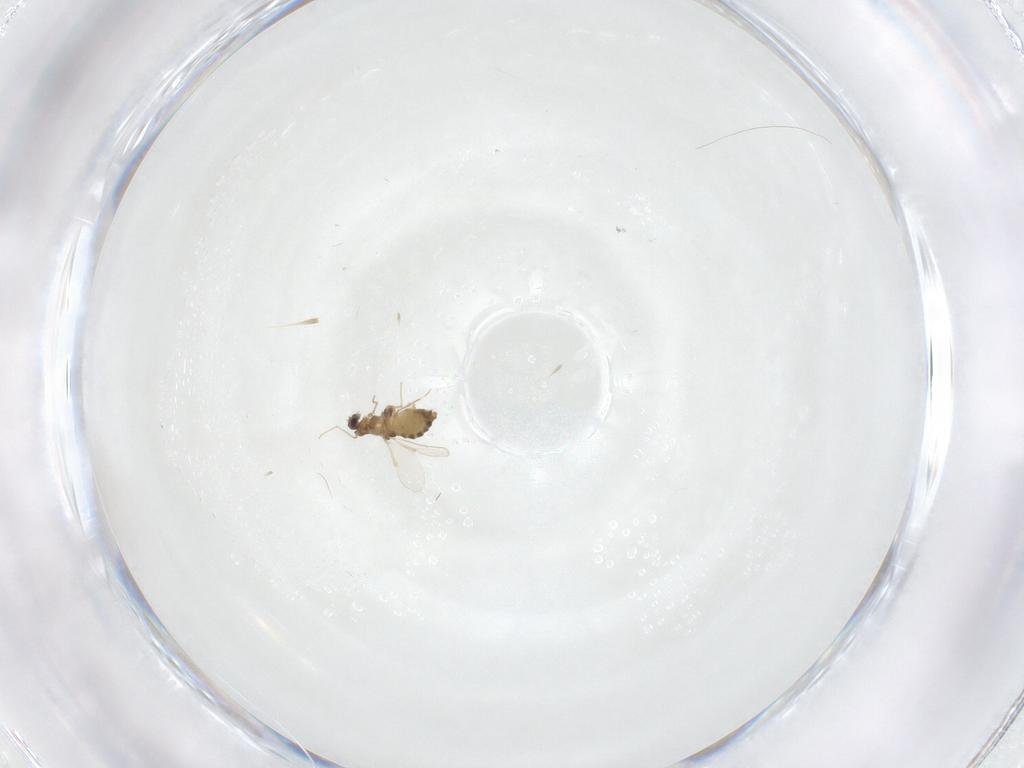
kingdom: Animalia
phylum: Arthropoda
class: Insecta
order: Diptera
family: Chironomidae
